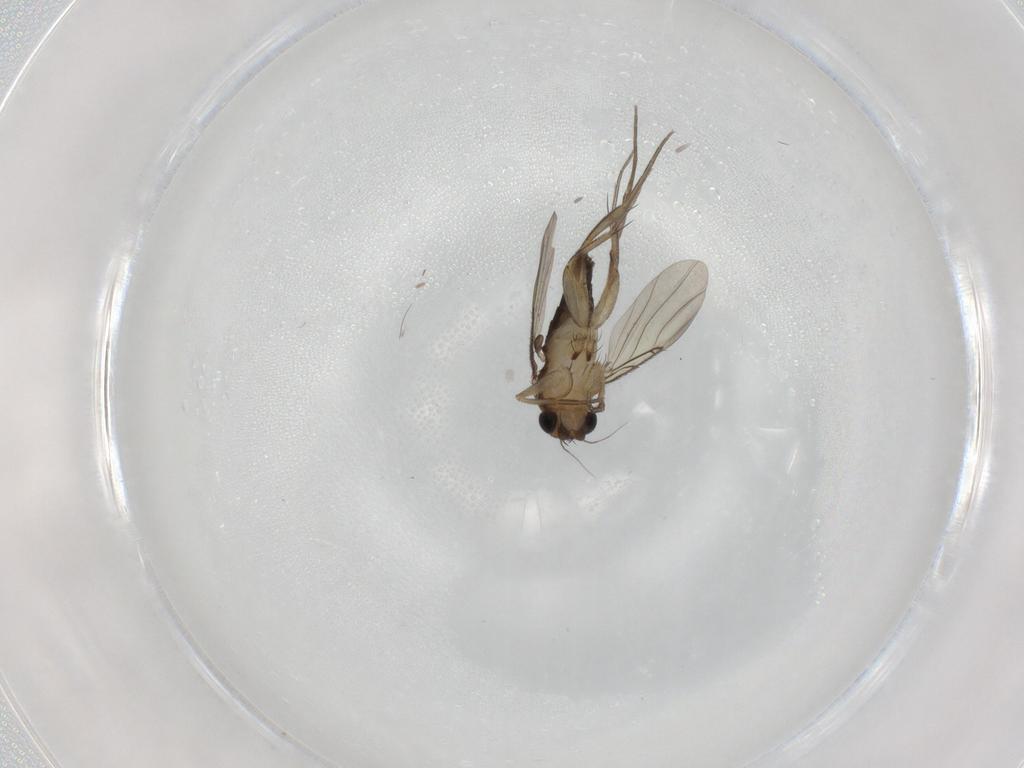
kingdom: Animalia
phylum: Arthropoda
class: Insecta
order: Diptera
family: Phoridae
